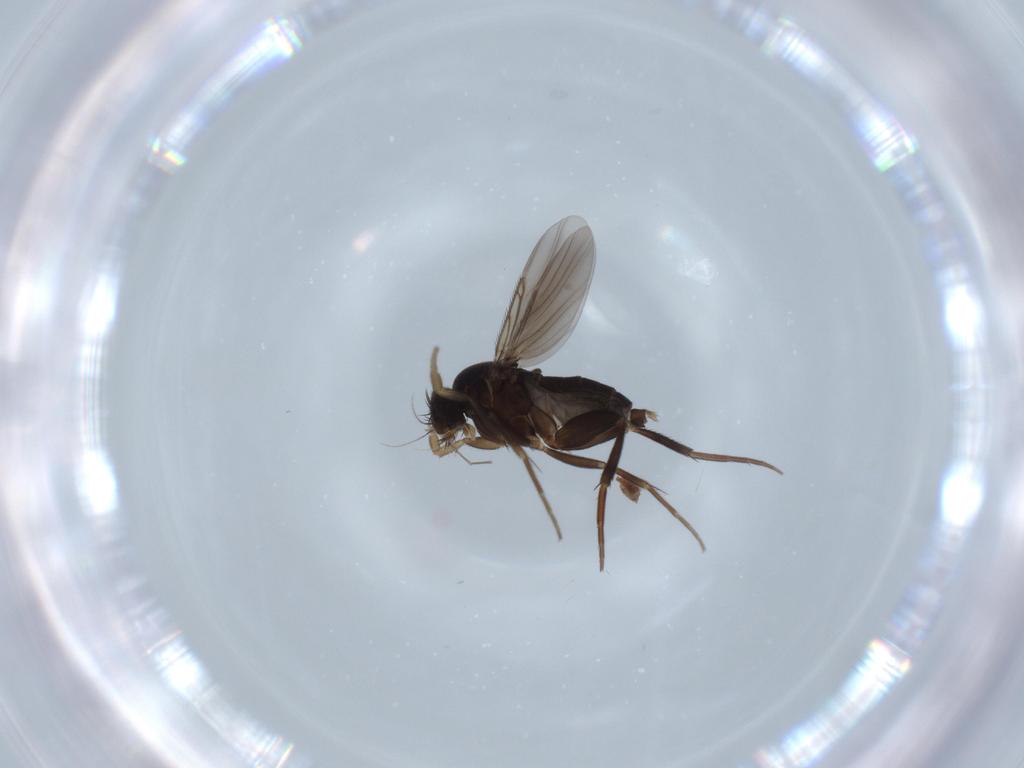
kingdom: Animalia
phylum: Arthropoda
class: Insecta
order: Diptera
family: Chironomidae
